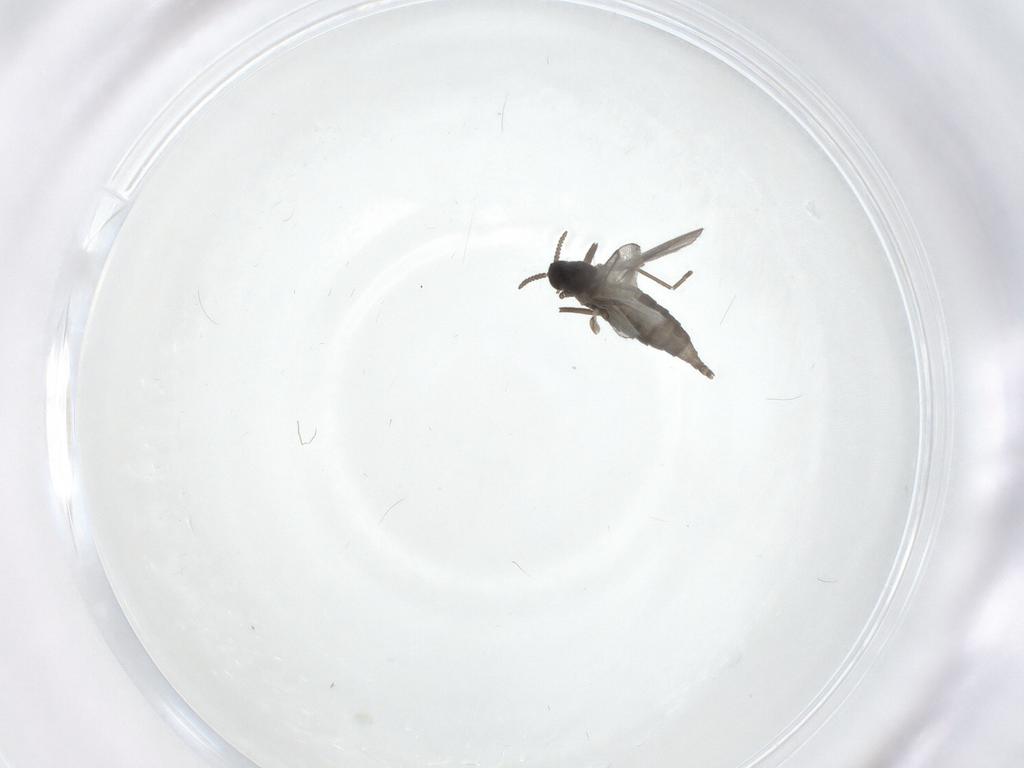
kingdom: Animalia
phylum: Arthropoda
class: Insecta
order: Diptera
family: Cecidomyiidae
